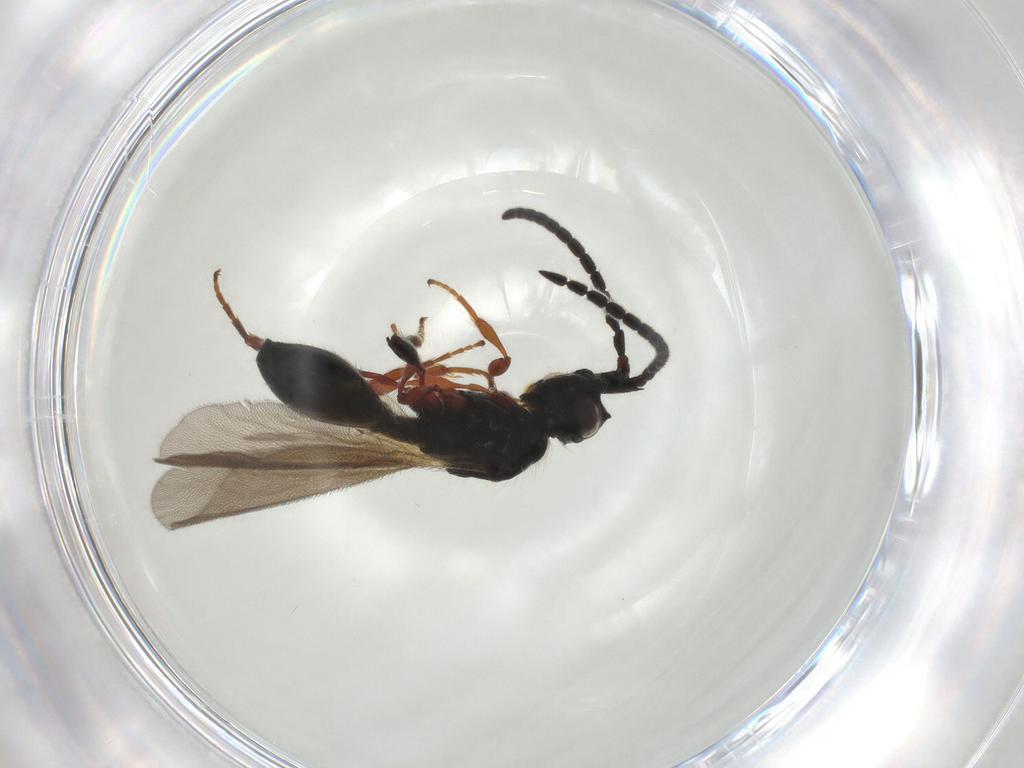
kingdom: Animalia
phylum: Arthropoda
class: Insecta
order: Hymenoptera
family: Diapriidae
